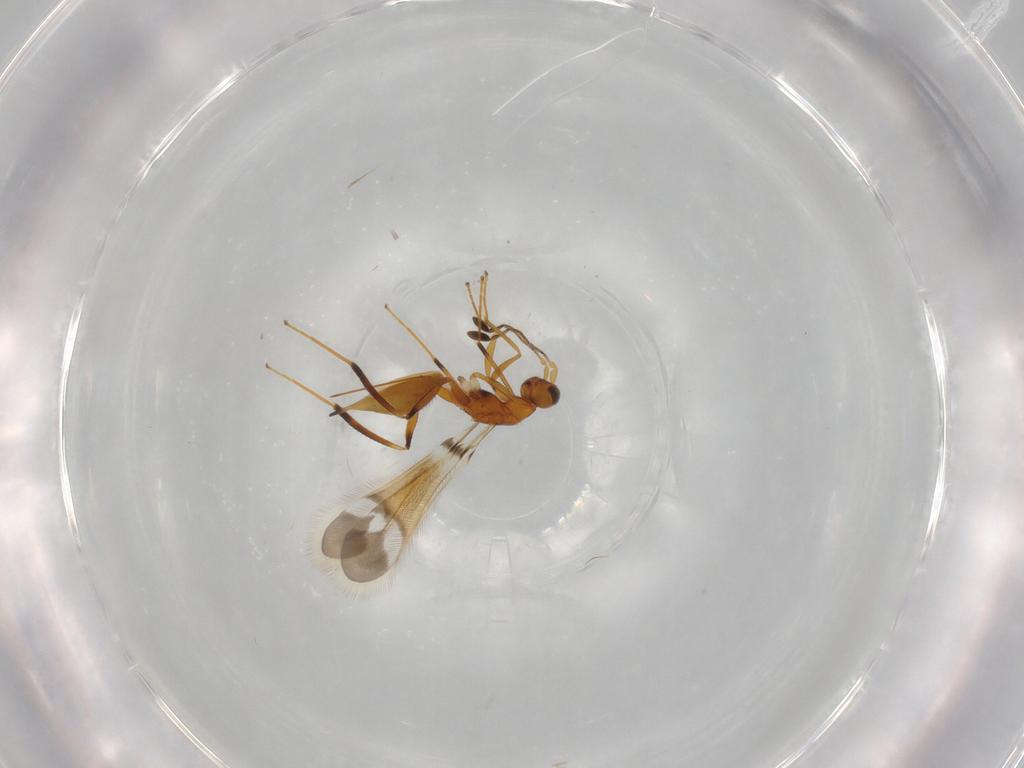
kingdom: Animalia
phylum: Arthropoda
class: Insecta
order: Hymenoptera
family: Mymaridae
